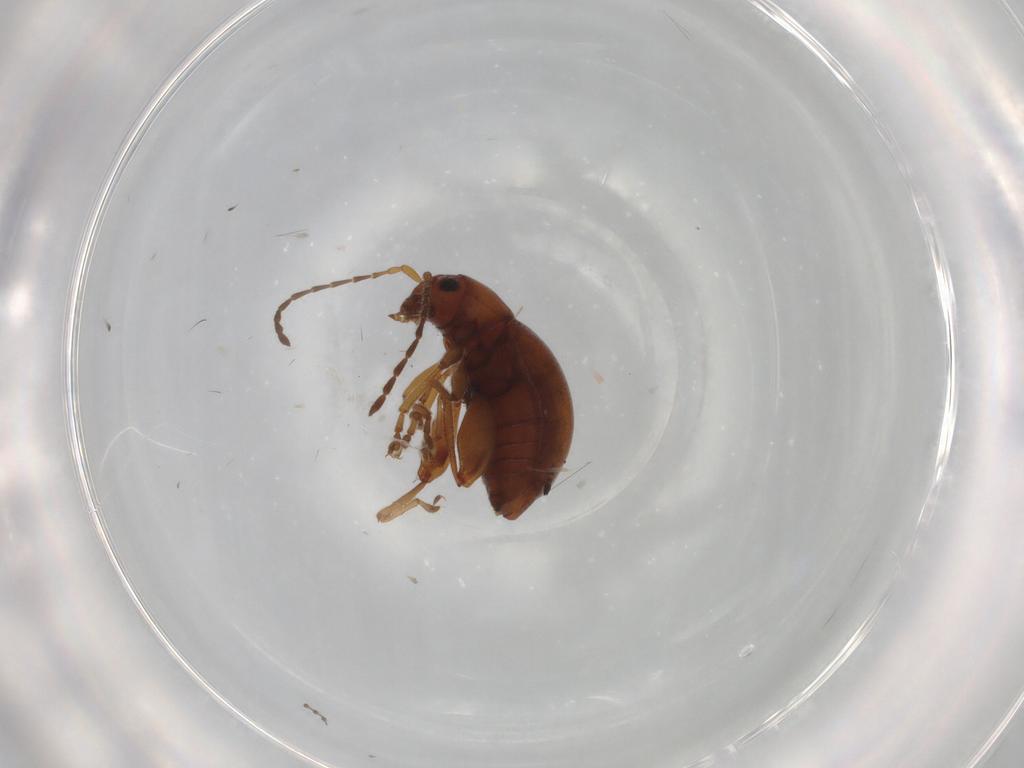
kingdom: Animalia
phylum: Arthropoda
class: Insecta
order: Coleoptera
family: Chrysomelidae
